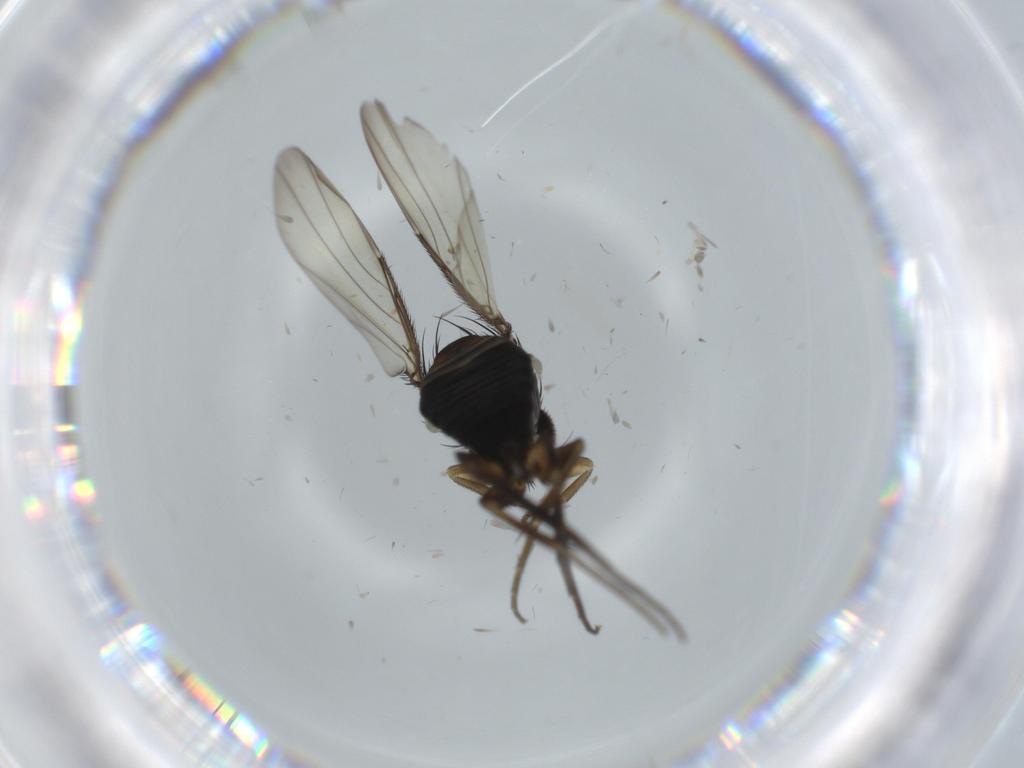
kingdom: Animalia
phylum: Arthropoda
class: Insecta
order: Diptera
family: Phoridae
